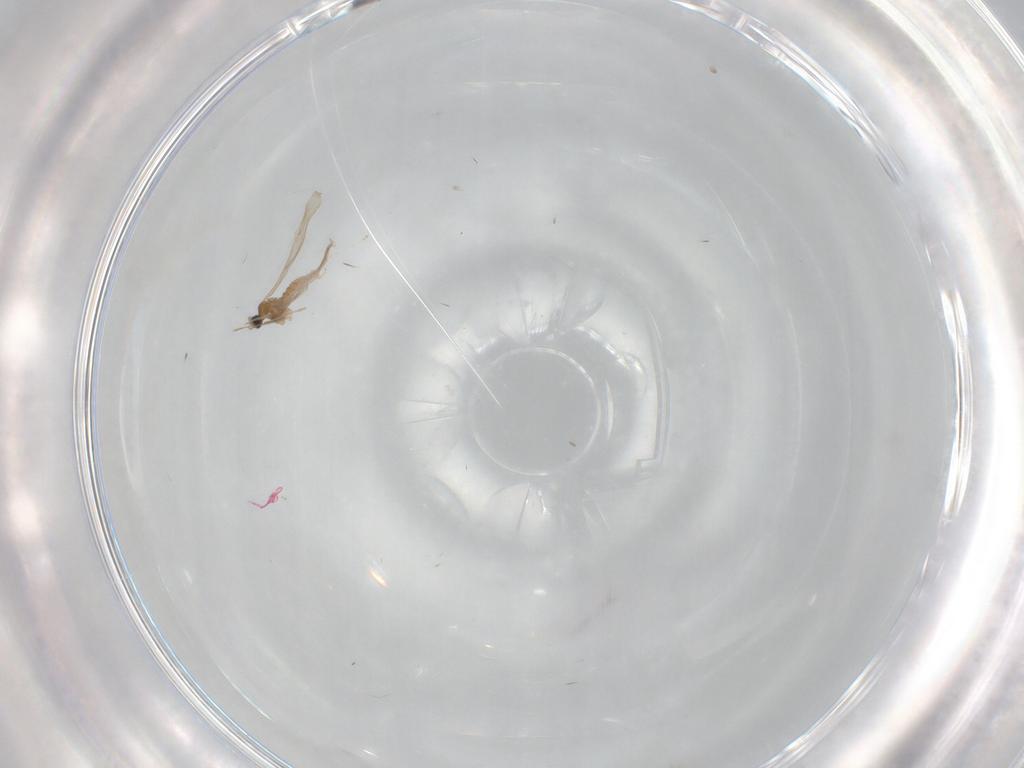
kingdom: Animalia
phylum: Arthropoda
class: Insecta
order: Diptera
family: Cecidomyiidae
